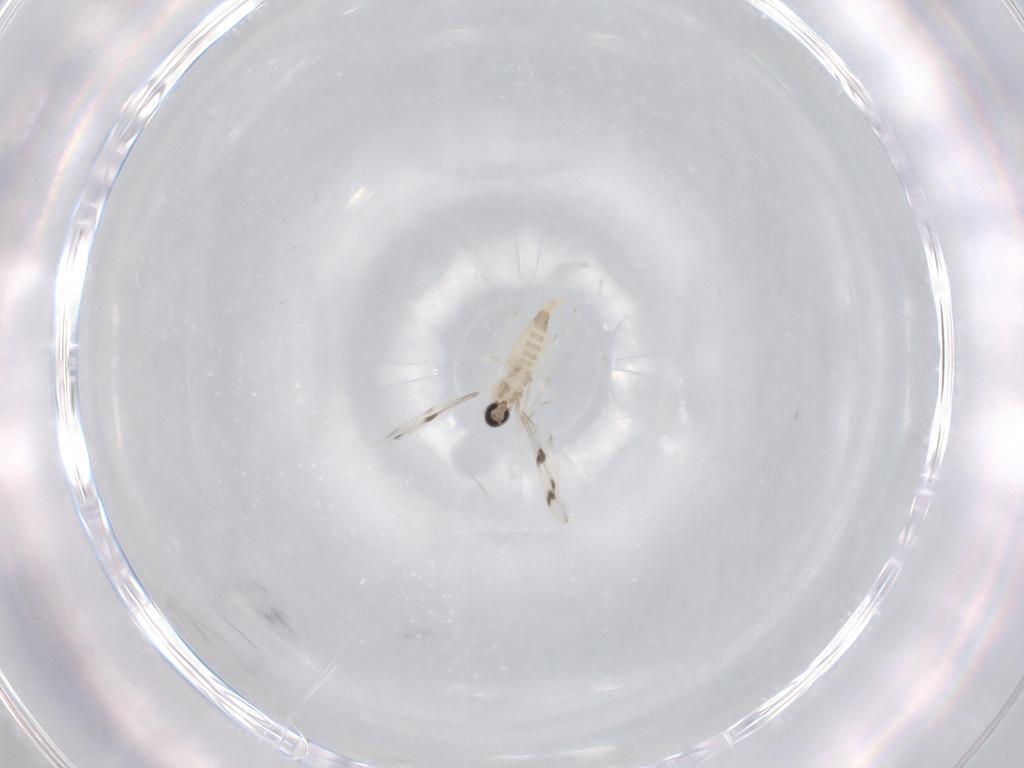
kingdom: Animalia
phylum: Arthropoda
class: Insecta
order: Diptera
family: Cecidomyiidae
